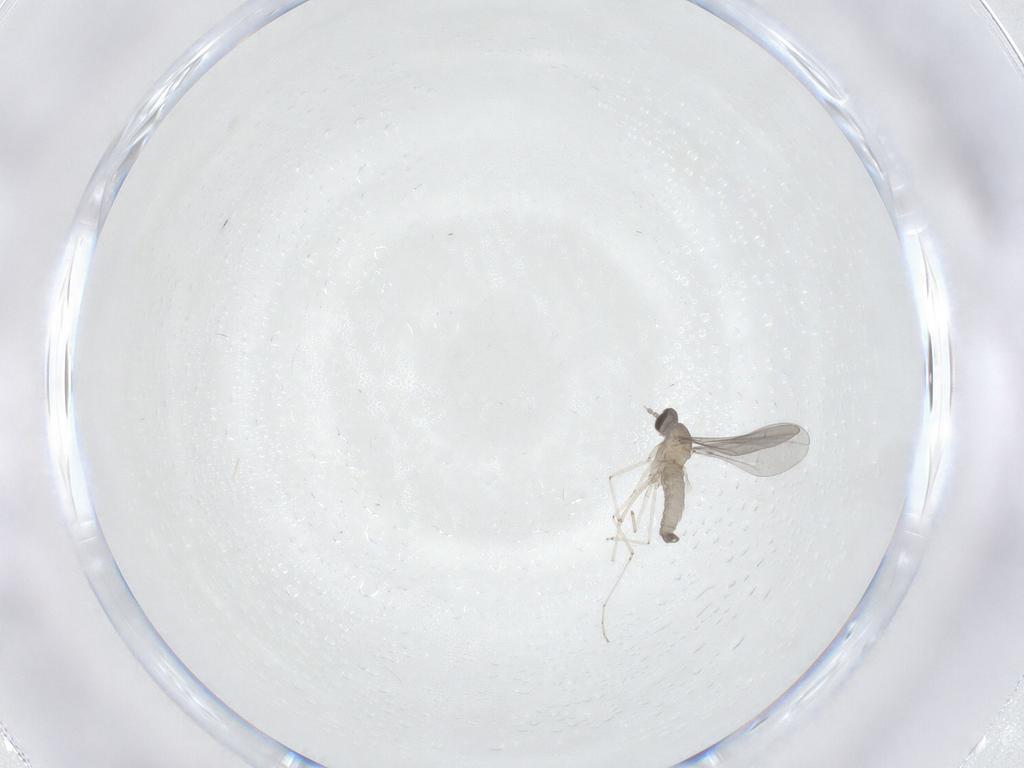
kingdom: Animalia
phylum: Arthropoda
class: Insecta
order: Diptera
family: Cecidomyiidae
